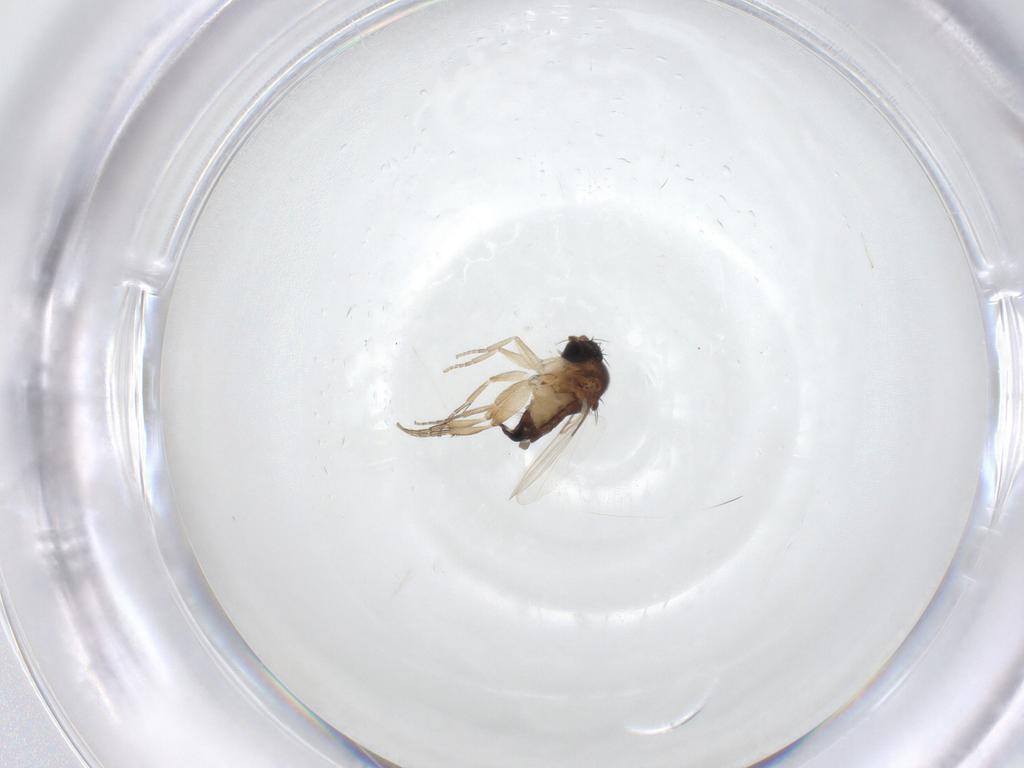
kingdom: Animalia
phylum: Arthropoda
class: Insecta
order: Diptera
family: Phoridae
